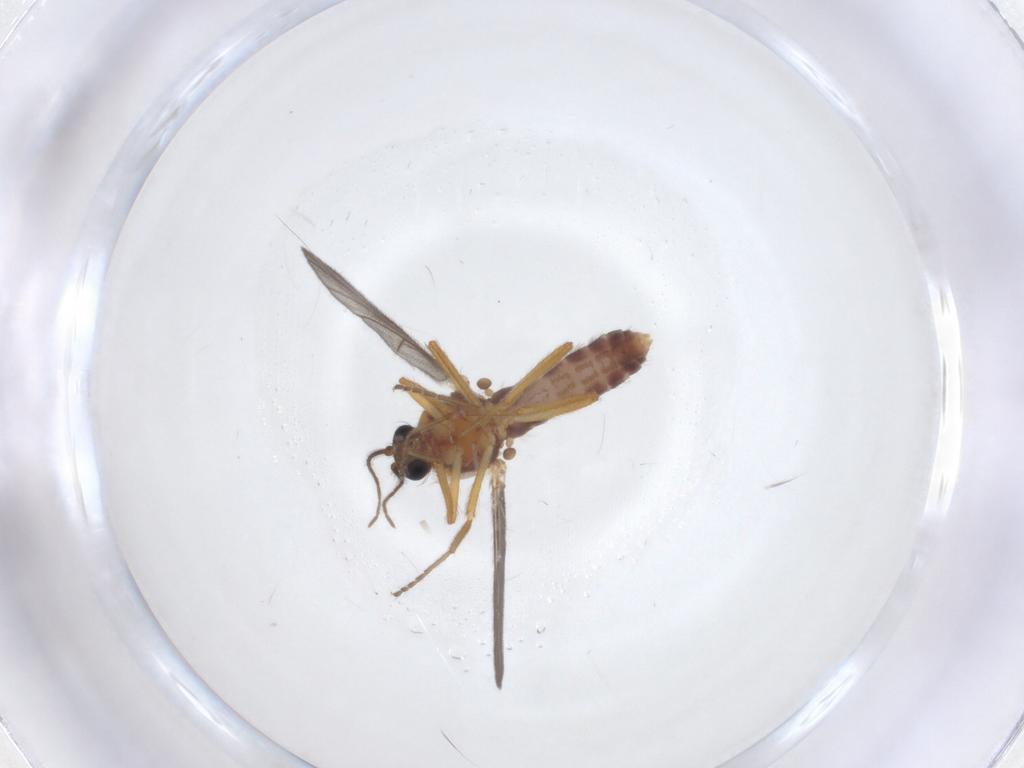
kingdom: Animalia
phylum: Arthropoda
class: Insecta
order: Diptera
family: Ceratopogonidae
